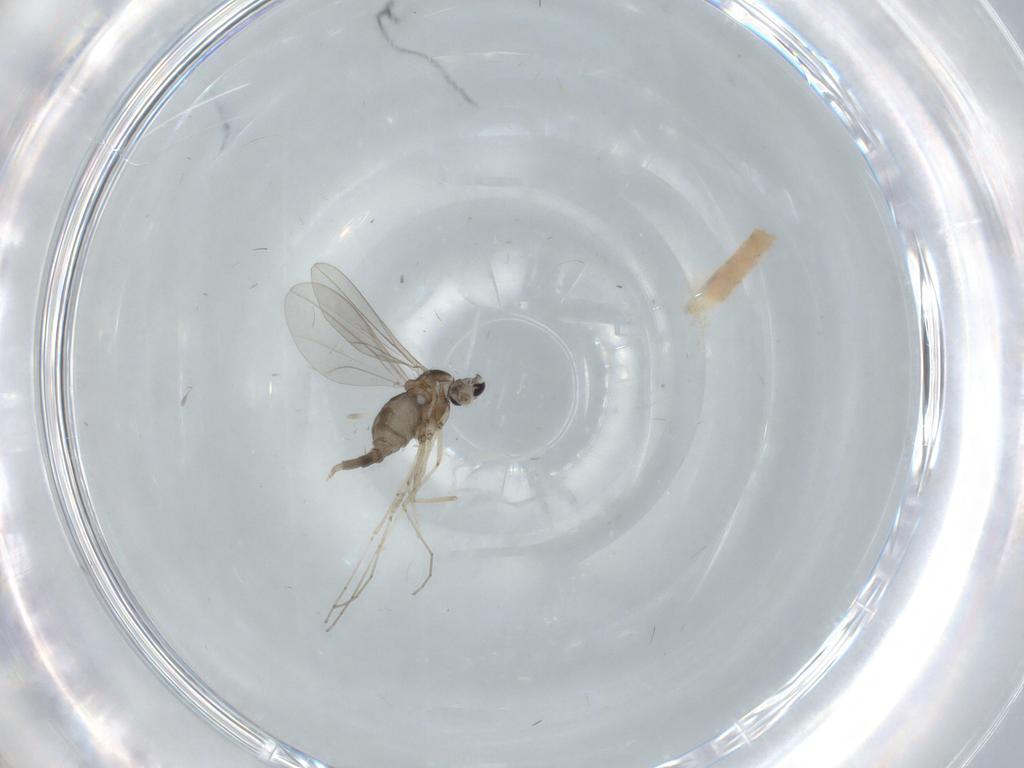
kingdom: Animalia
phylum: Arthropoda
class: Insecta
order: Diptera
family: Cecidomyiidae
